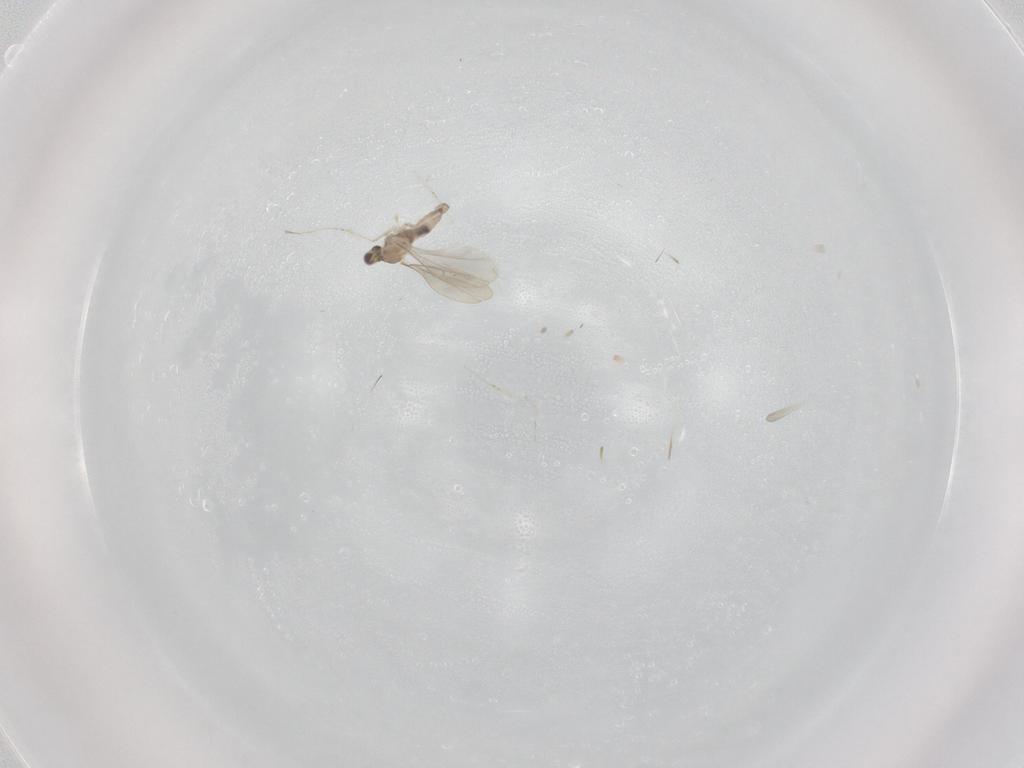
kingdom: Animalia
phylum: Arthropoda
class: Insecta
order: Diptera
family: Cecidomyiidae
